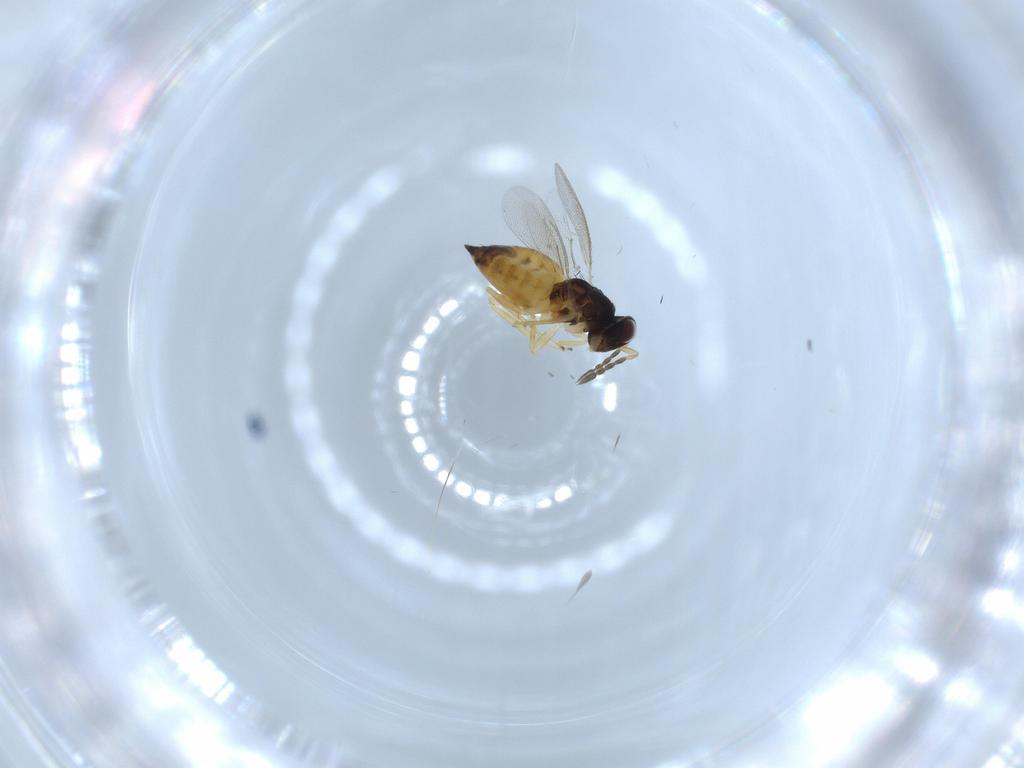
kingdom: Animalia
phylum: Arthropoda
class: Insecta
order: Hymenoptera
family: Eulophidae
